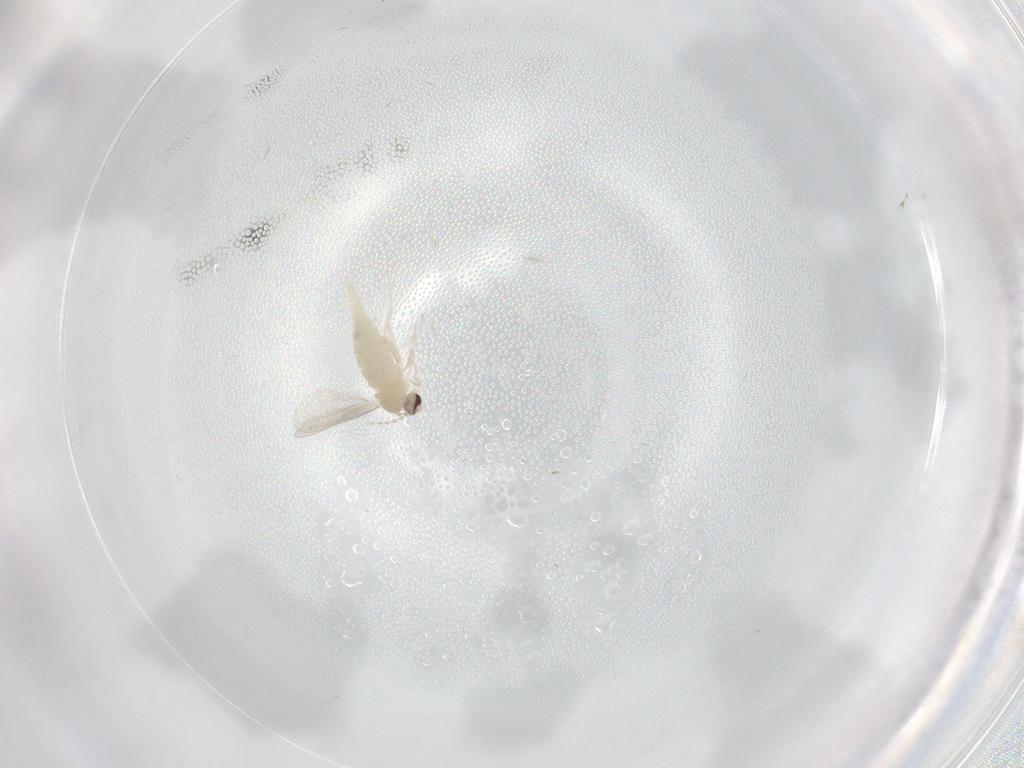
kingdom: Animalia
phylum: Arthropoda
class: Insecta
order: Diptera
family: Cecidomyiidae
